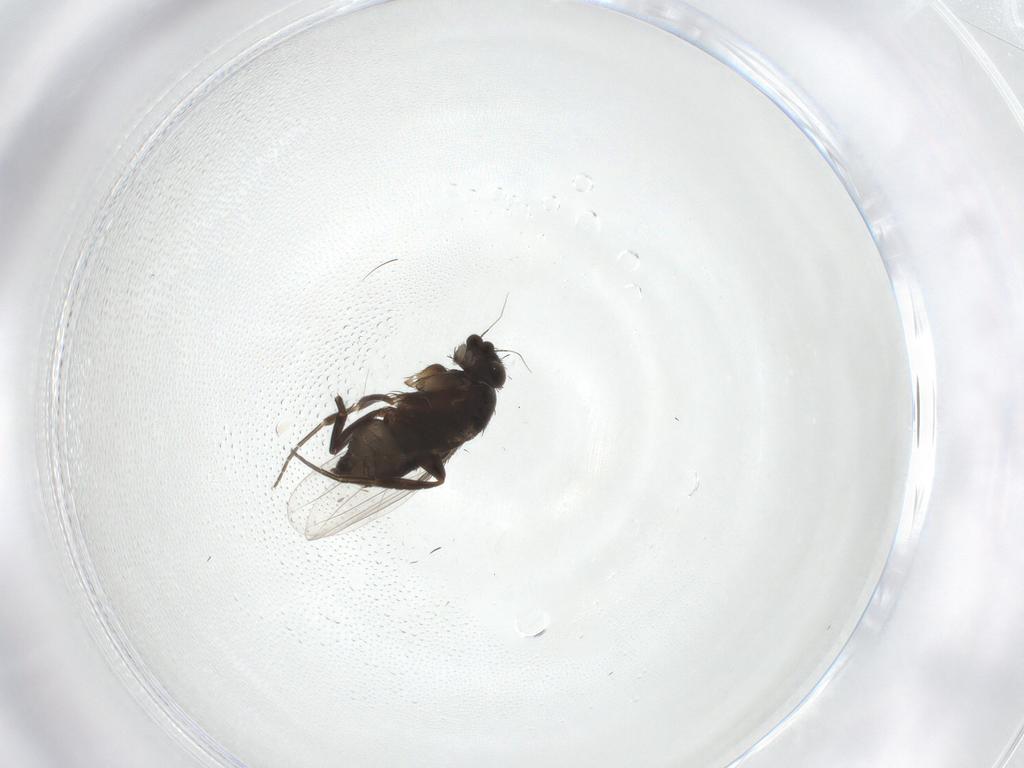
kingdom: Animalia
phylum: Arthropoda
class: Insecta
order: Diptera
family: Phoridae
